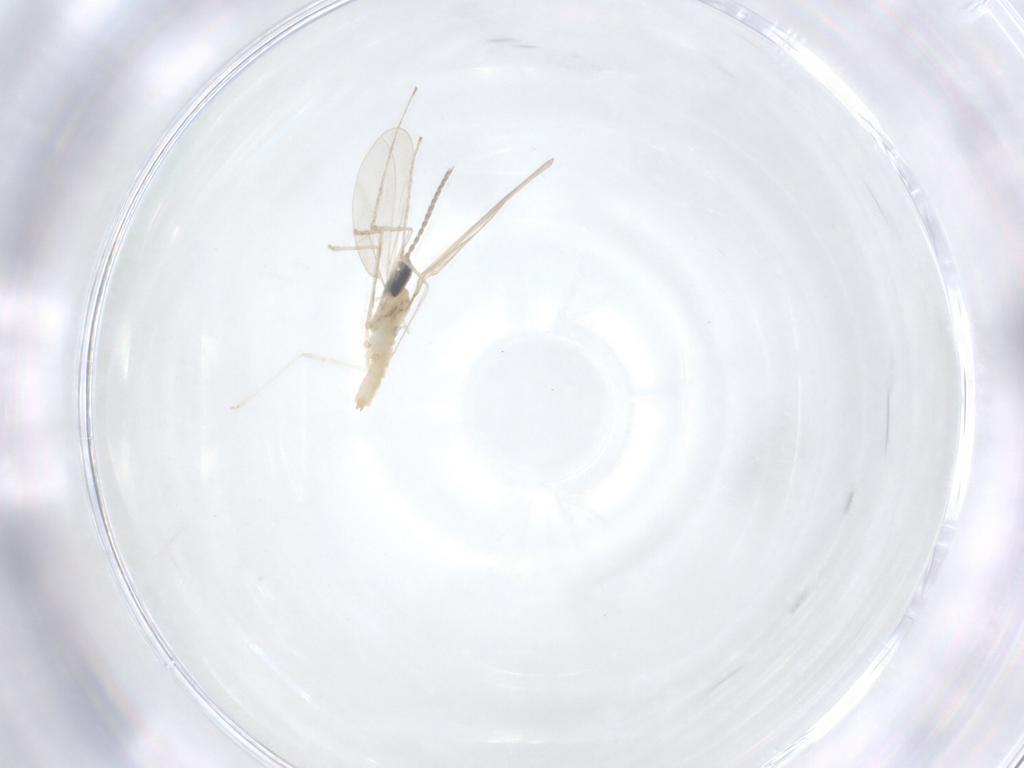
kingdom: Animalia
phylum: Arthropoda
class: Insecta
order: Diptera
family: Cecidomyiidae
